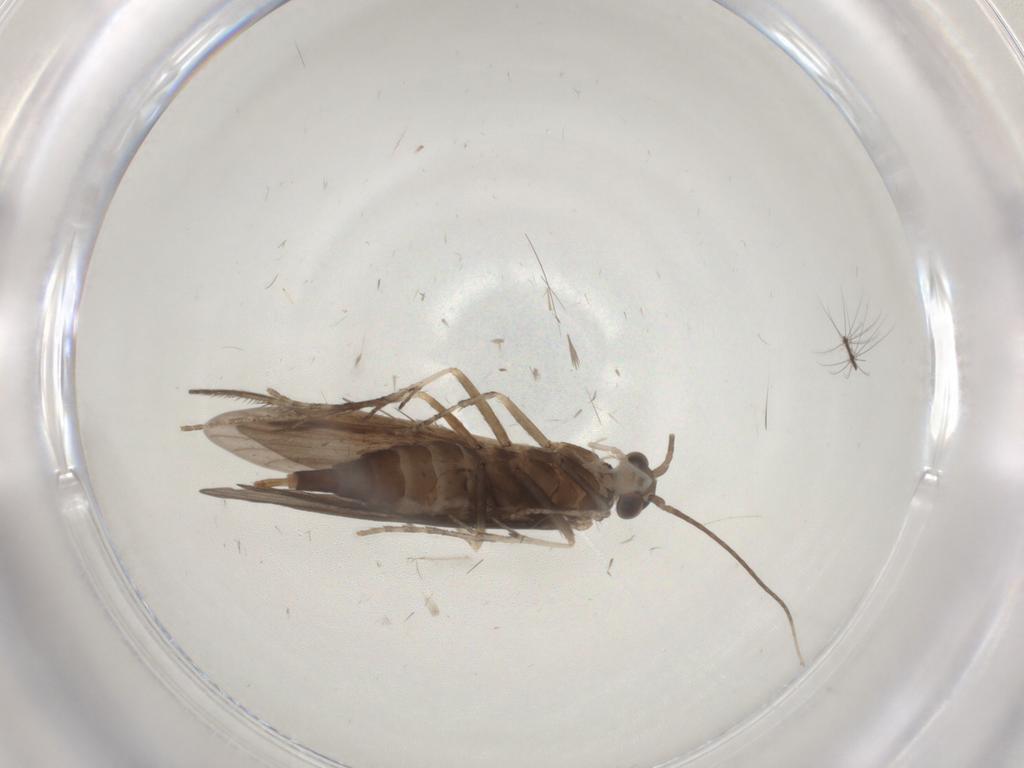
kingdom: Animalia
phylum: Arthropoda
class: Insecta
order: Trichoptera
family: Xiphocentronidae
